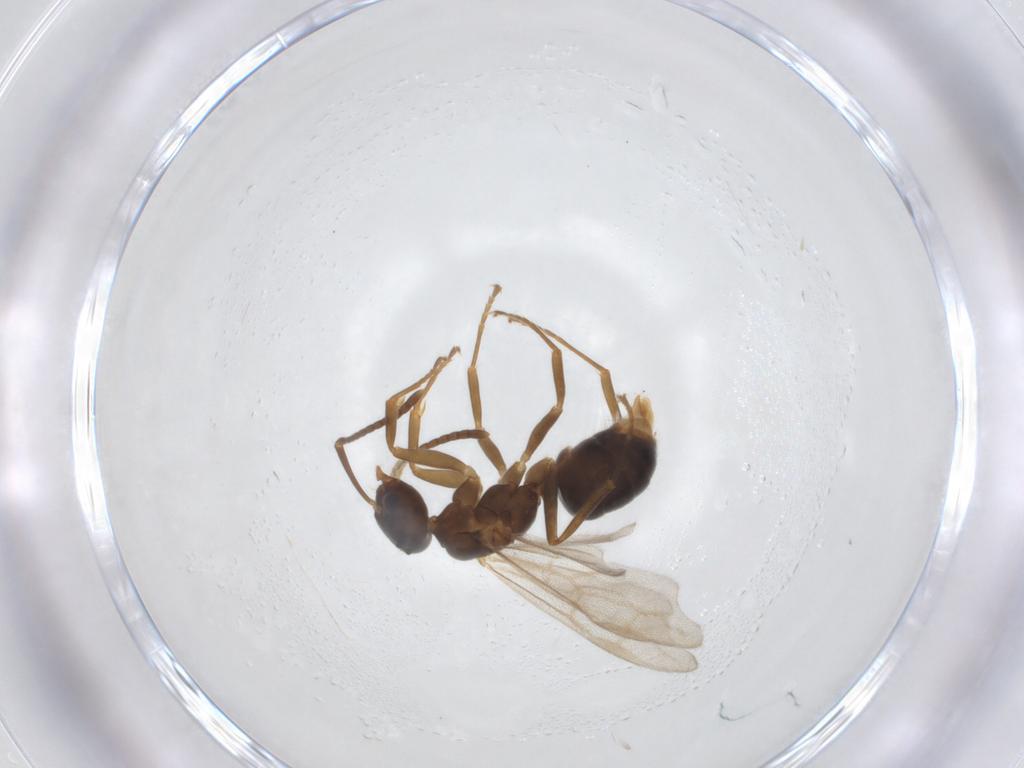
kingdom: Animalia
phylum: Arthropoda
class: Insecta
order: Hymenoptera
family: Formicidae
